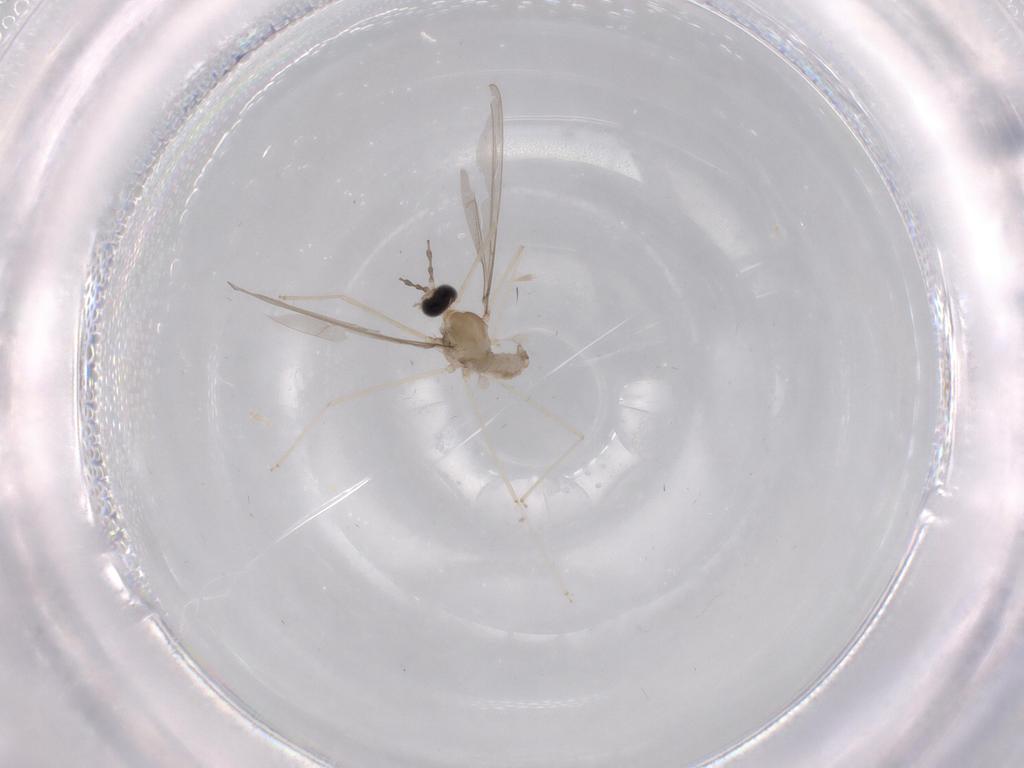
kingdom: Animalia
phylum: Arthropoda
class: Insecta
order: Diptera
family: Cecidomyiidae
